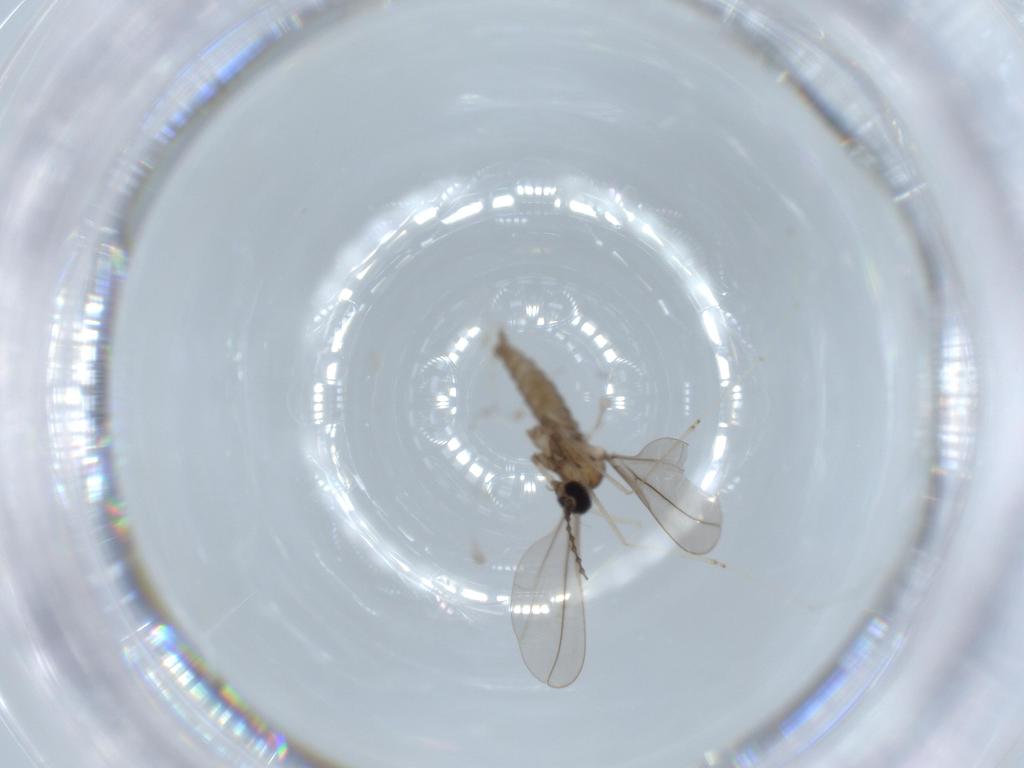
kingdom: Animalia
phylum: Arthropoda
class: Insecta
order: Diptera
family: Cecidomyiidae
